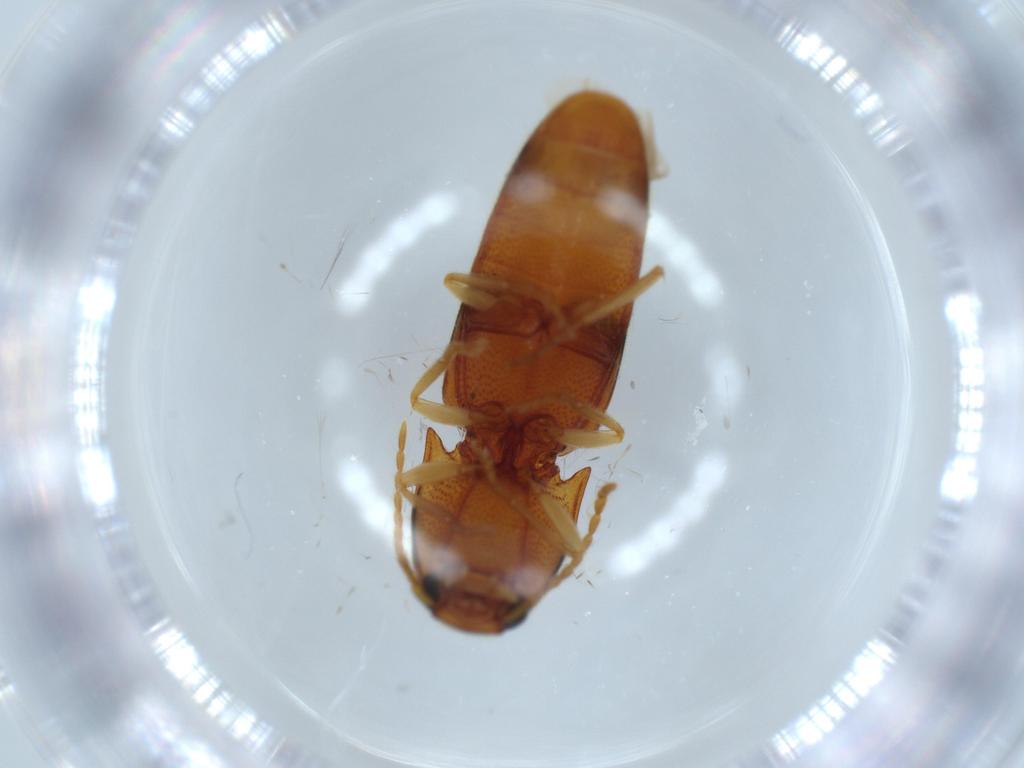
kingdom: Animalia
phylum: Arthropoda
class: Insecta
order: Coleoptera
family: Elateridae
